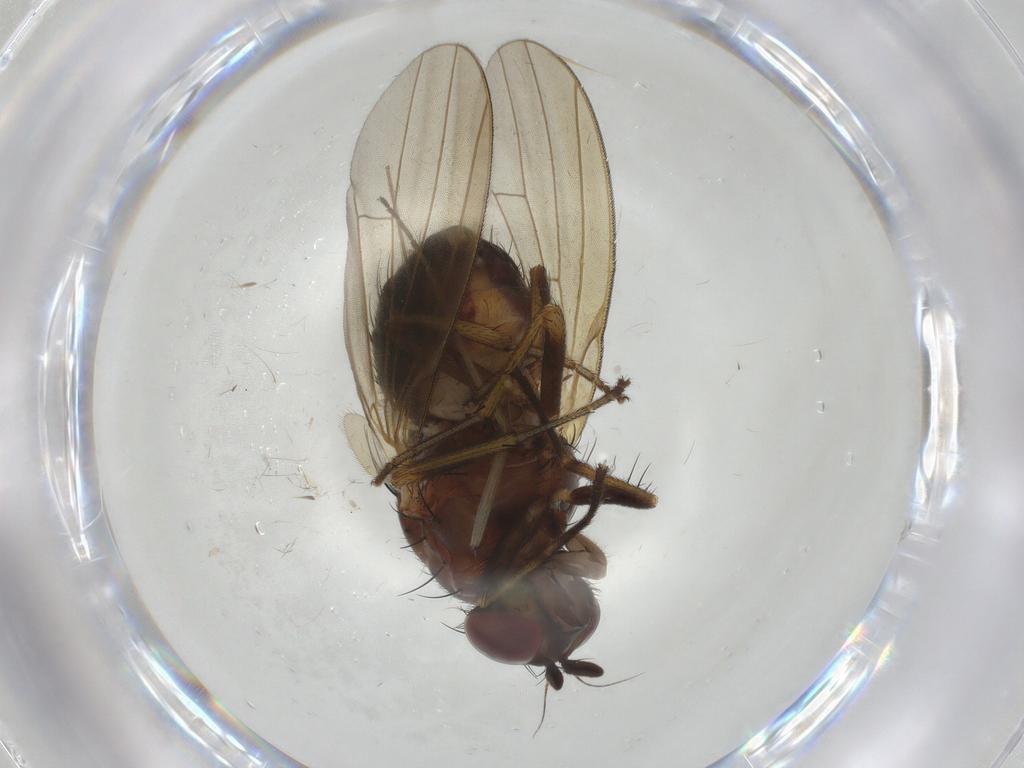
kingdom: Animalia
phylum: Arthropoda
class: Insecta
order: Diptera
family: Lauxaniidae
